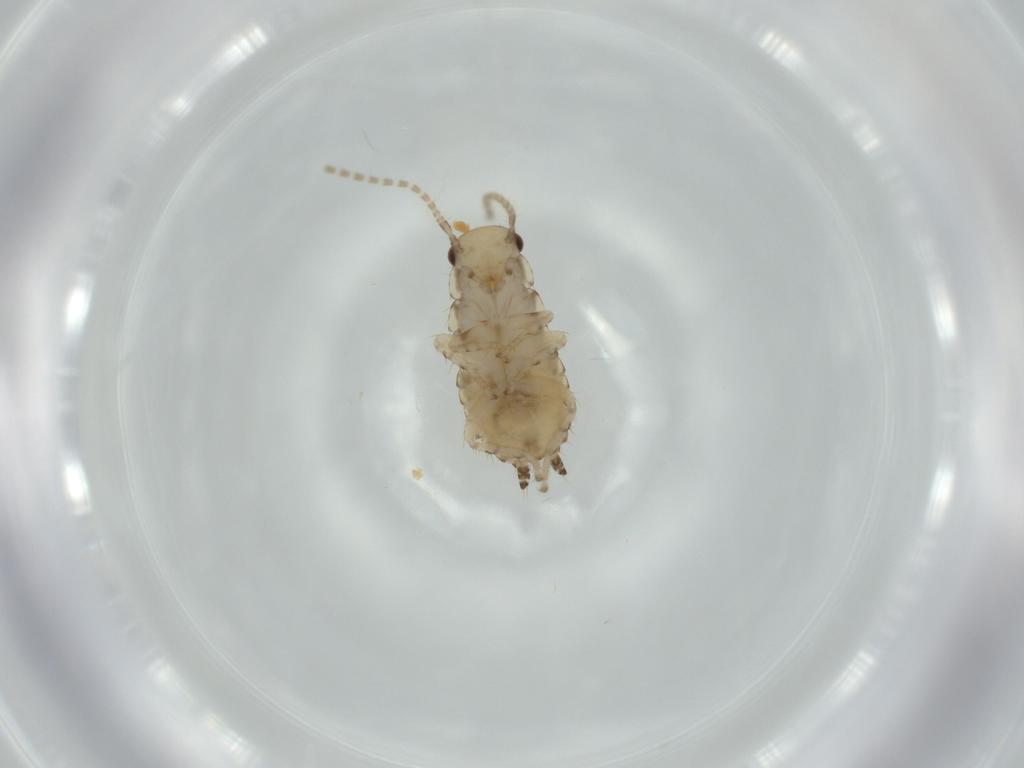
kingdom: Animalia
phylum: Arthropoda
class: Insecta
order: Blattodea
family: Ectobiidae
